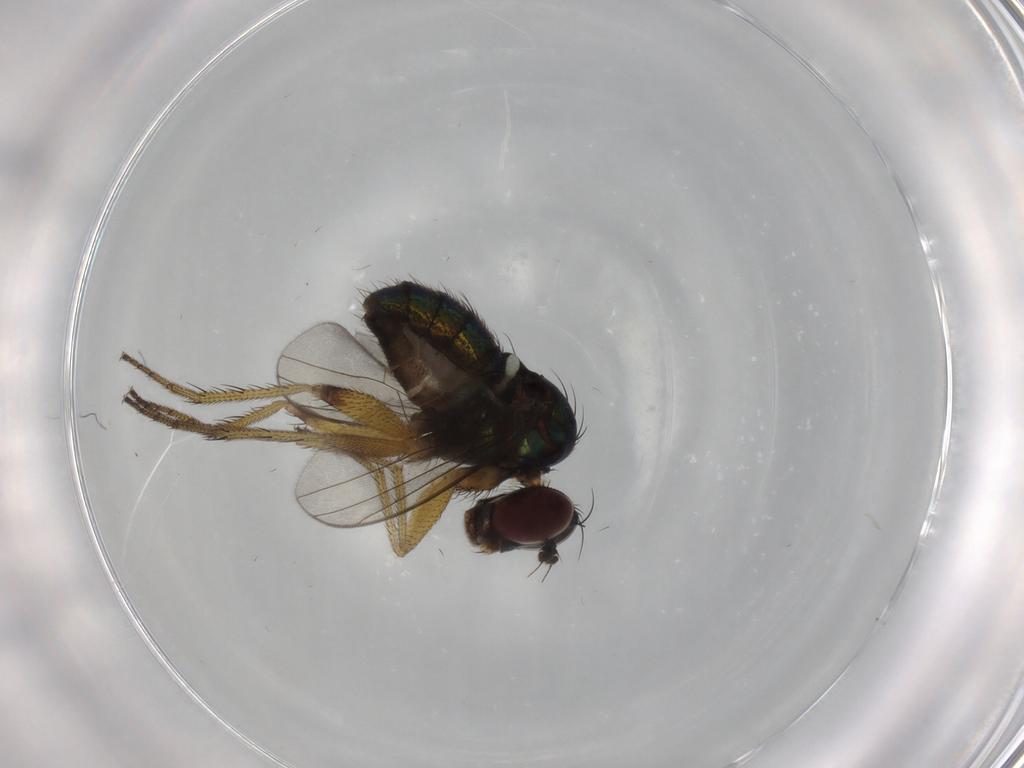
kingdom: Animalia
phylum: Arthropoda
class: Insecta
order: Diptera
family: Dolichopodidae
